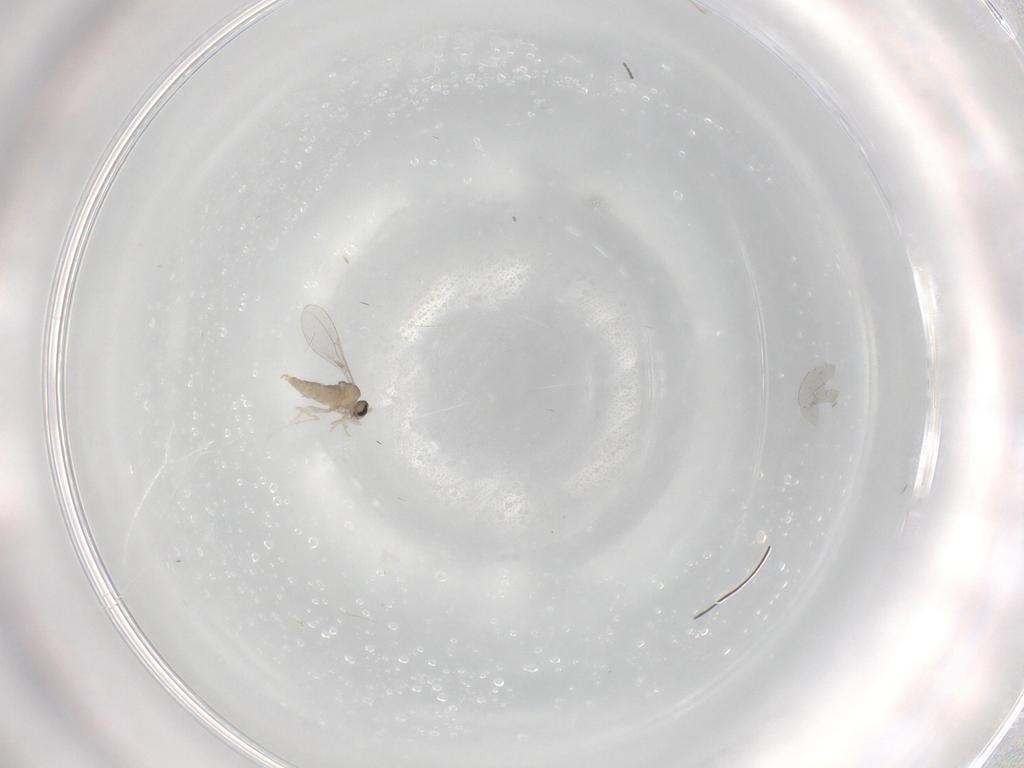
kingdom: Animalia
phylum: Arthropoda
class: Insecta
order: Diptera
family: Cecidomyiidae
